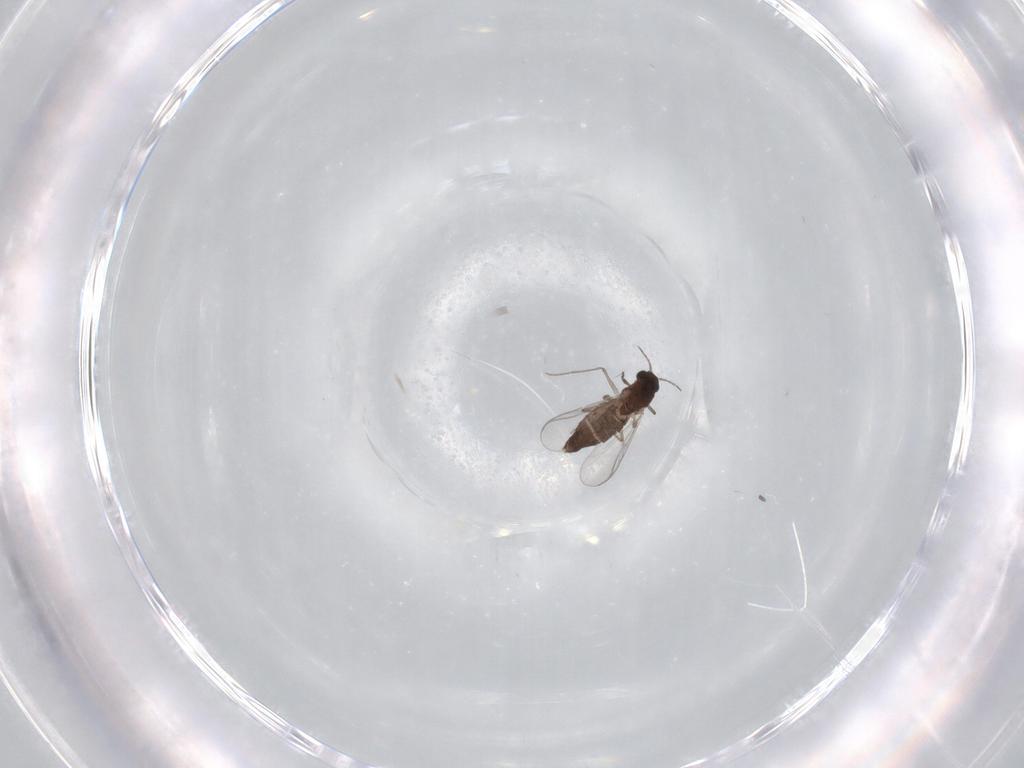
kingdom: Animalia
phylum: Arthropoda
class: Insecta
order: Diptera
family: Chironomidae
